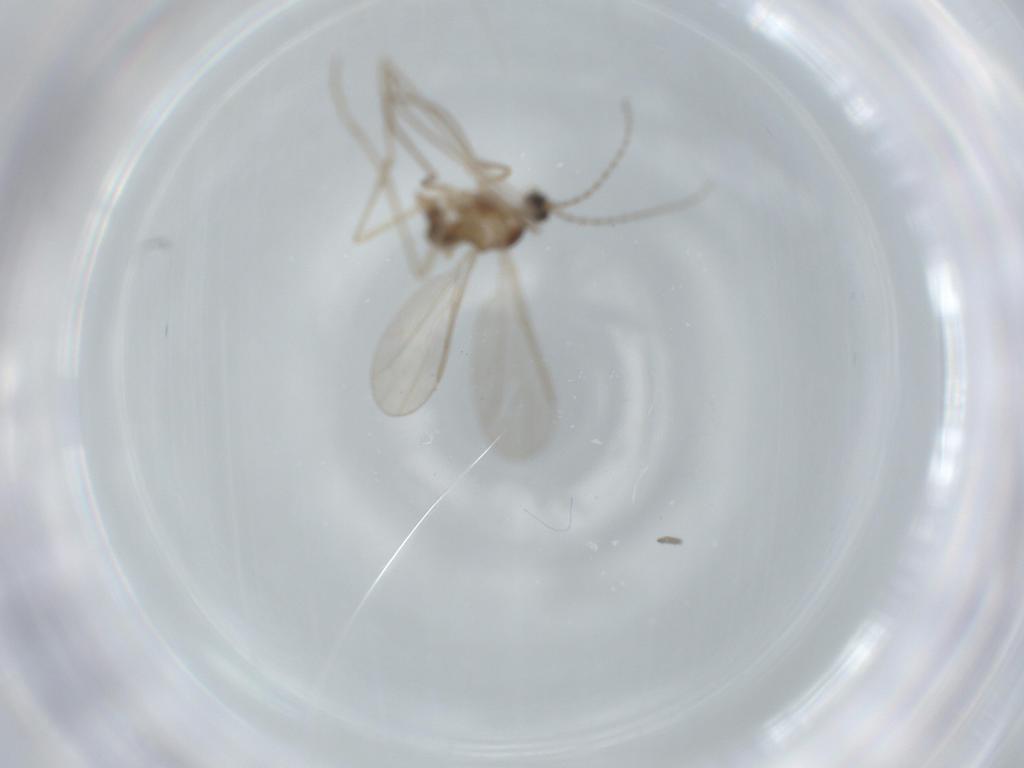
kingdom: Animalia
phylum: Arthropoda
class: Insecta
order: Diptera
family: Cecidomyiidae
